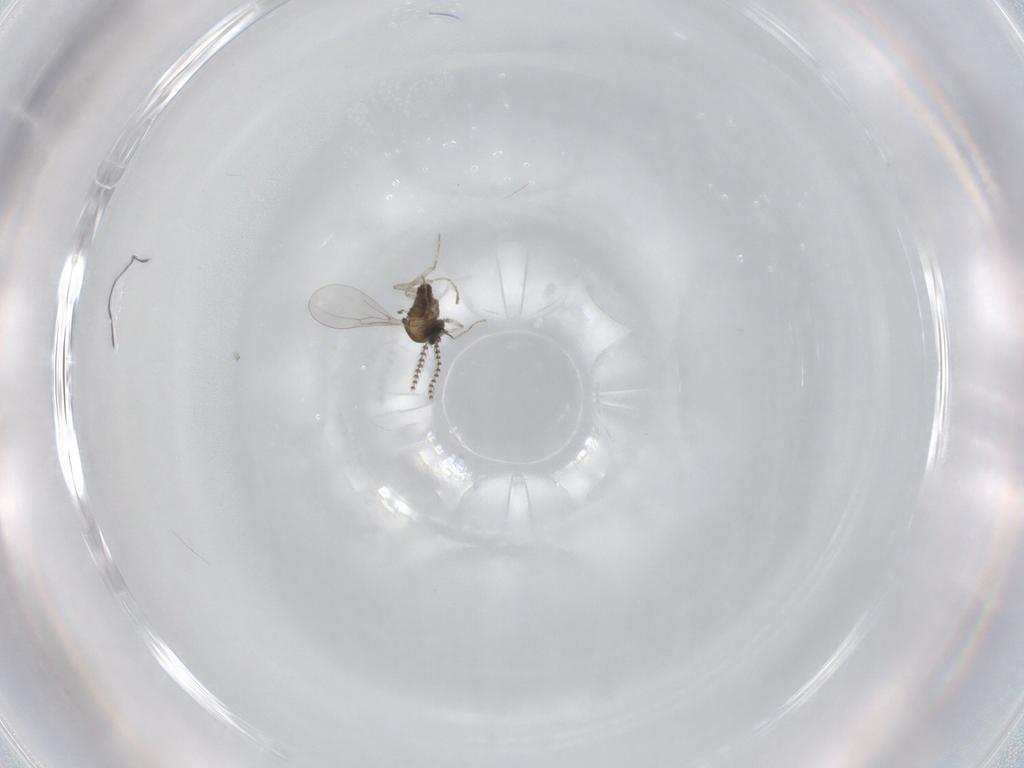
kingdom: Animalia
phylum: Arthropoda
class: Insecta
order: Diptera
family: Cecidomyiidae
